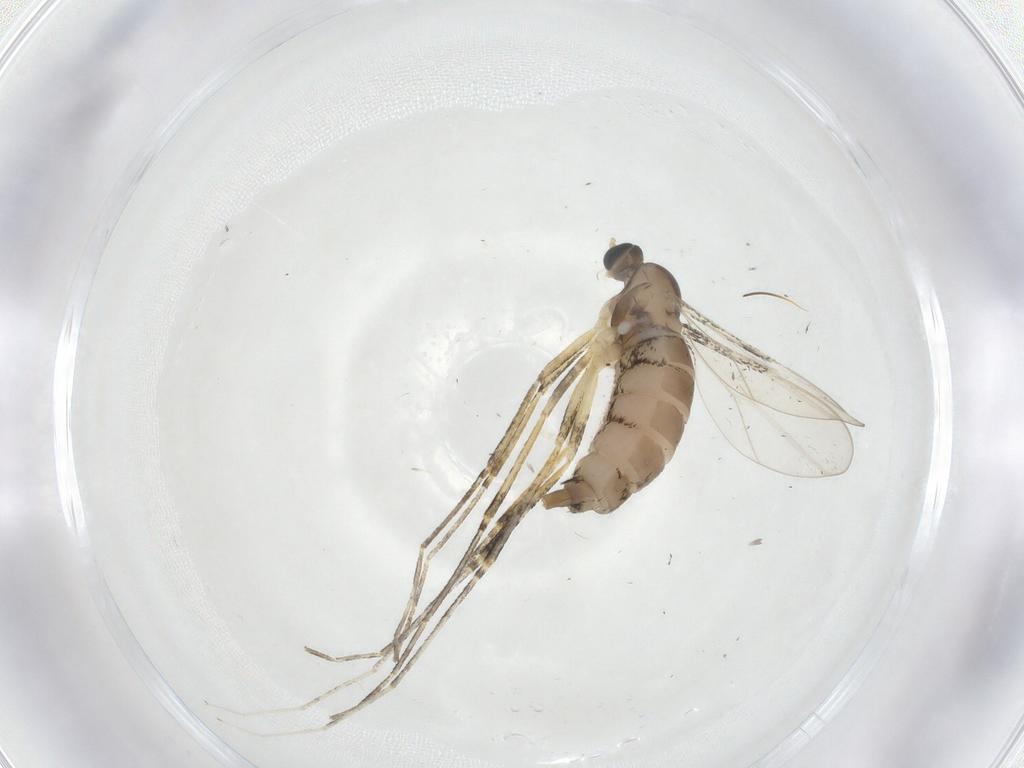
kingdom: Animalia
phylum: Arthropoda
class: Insecta
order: Diptera
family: Cecidomyiidae
